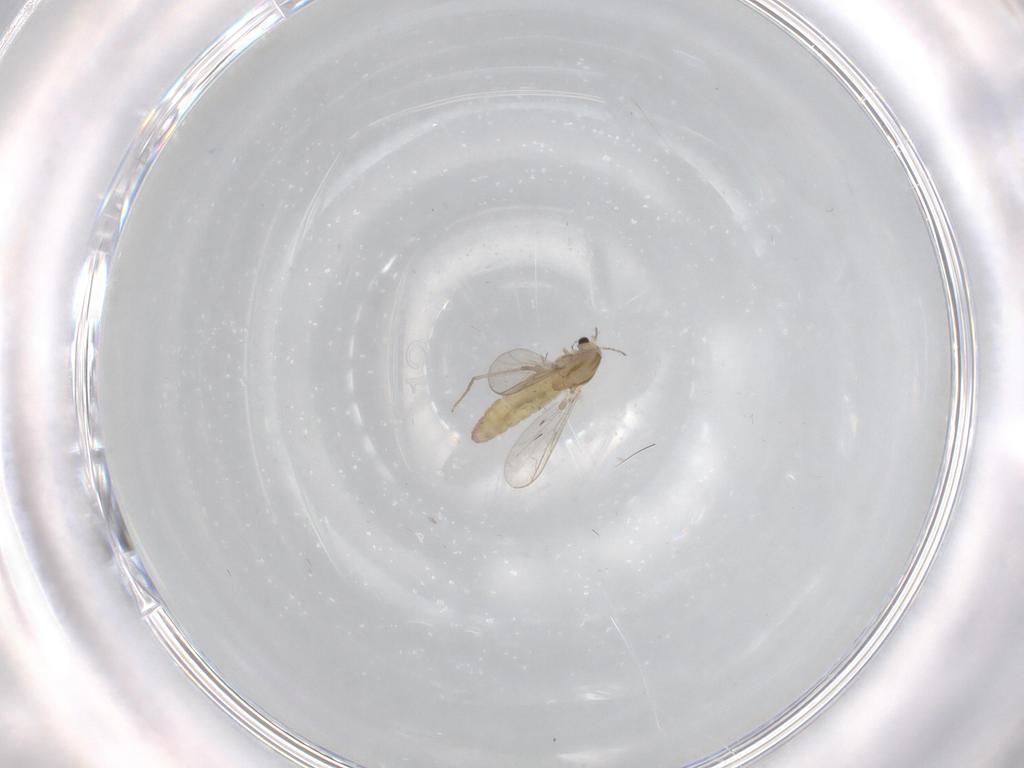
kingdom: Animalia
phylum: Arthropoda
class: Insecta
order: Diptera
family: Chironomidae
